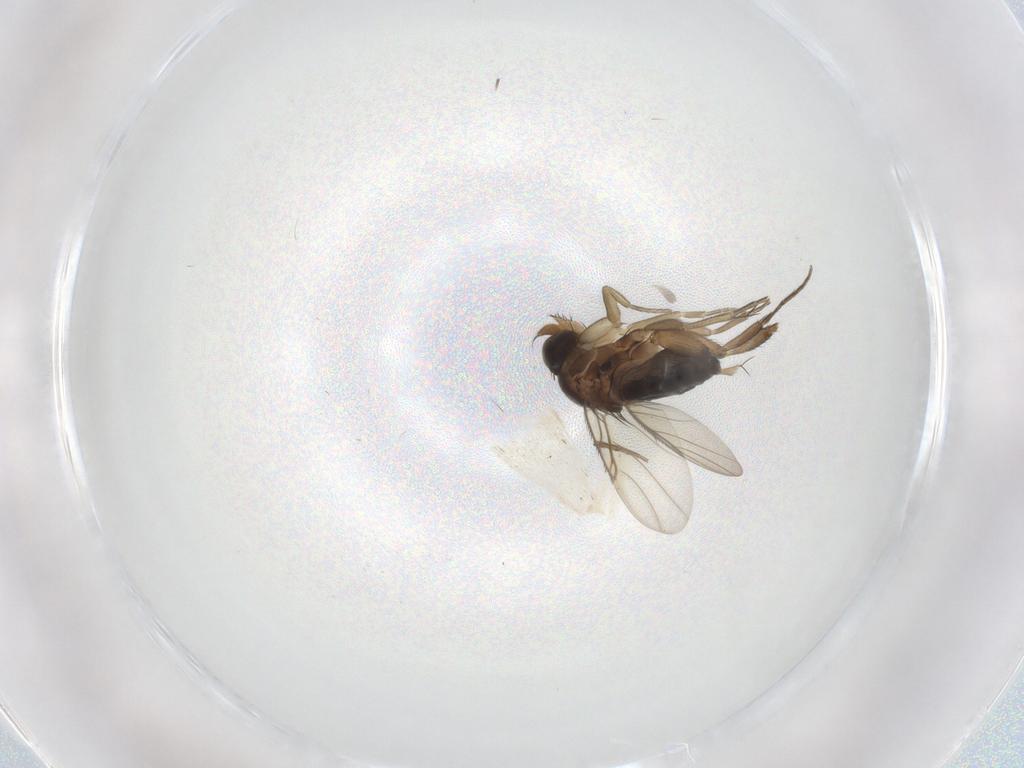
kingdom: Animalia
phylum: Arthropoda
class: Insecta
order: Diptera
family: Phoridae
